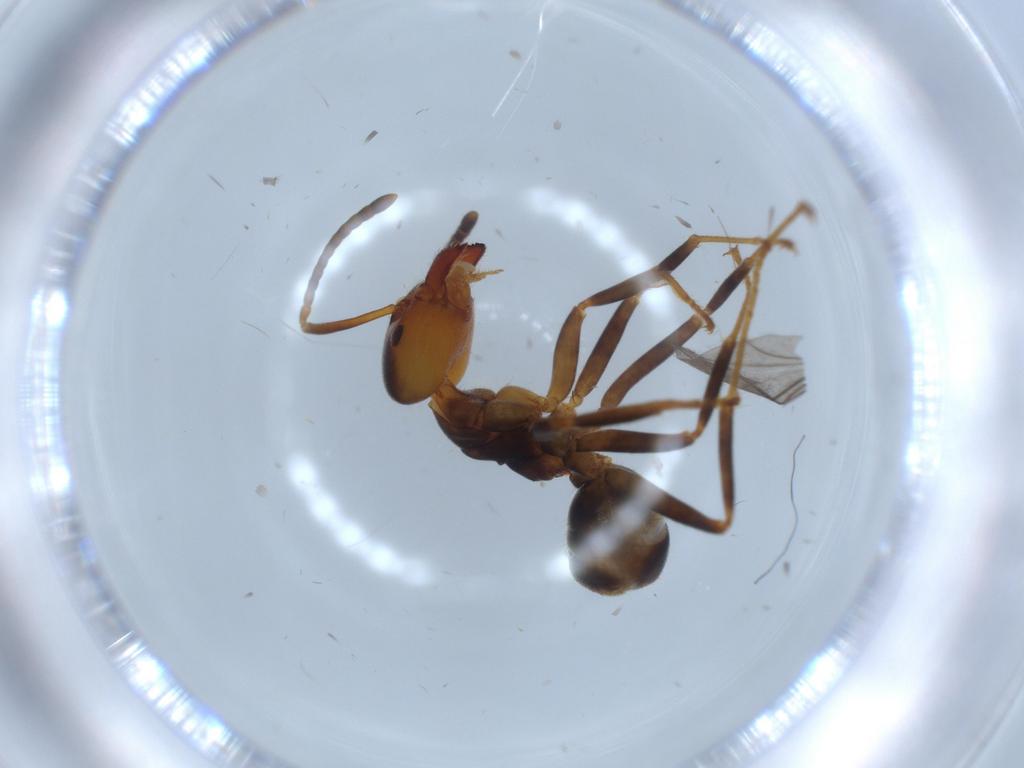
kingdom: Animalia
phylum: Arthropoda
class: Insecta
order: Hymenoptera
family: Formicidae
